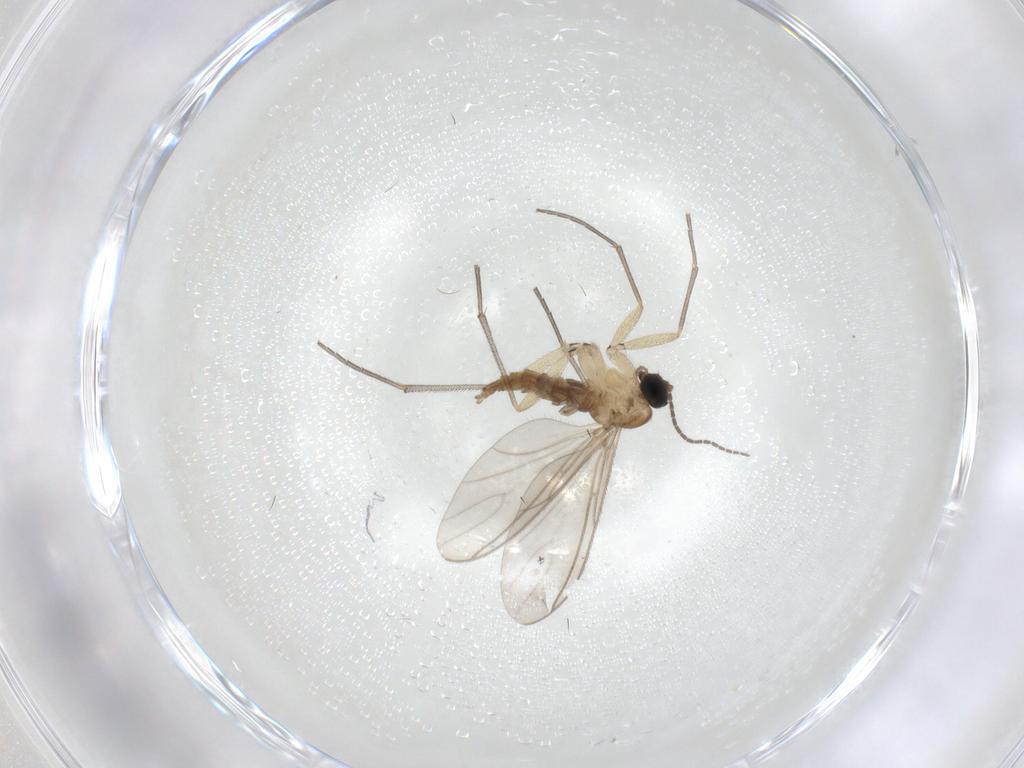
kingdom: Animalia
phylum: Arthropoda
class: Insecta
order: Diptera
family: Sciaridae
